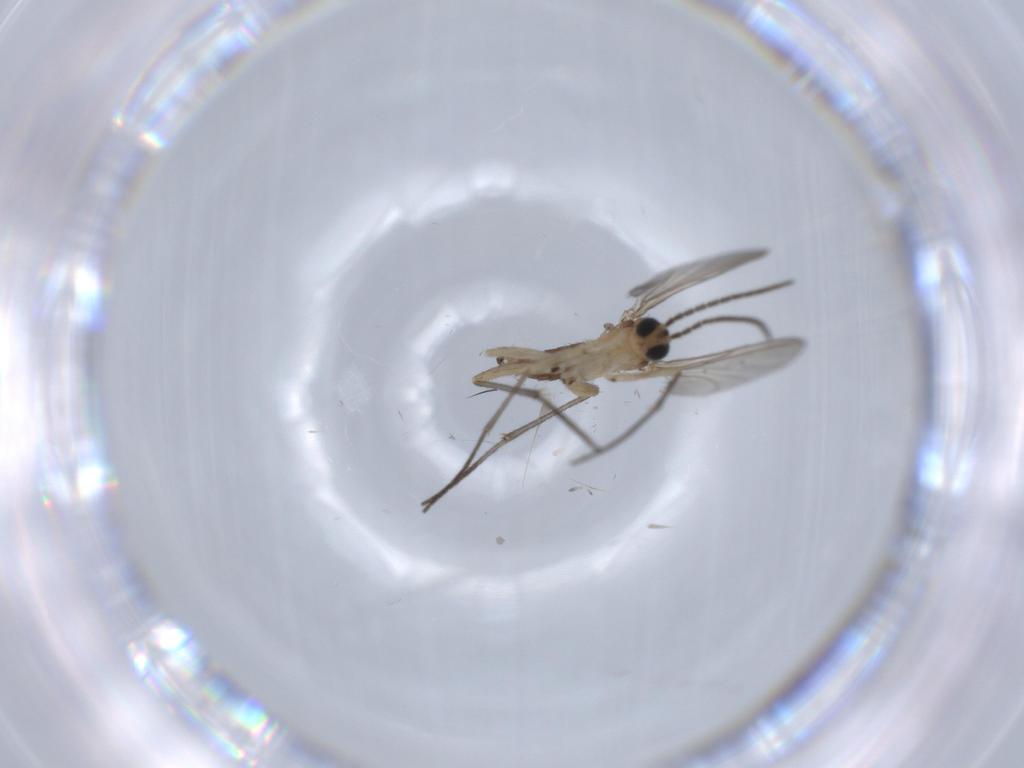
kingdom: Animalia
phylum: Arthropoda
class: Insecta
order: Diptera
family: Sciaridae
